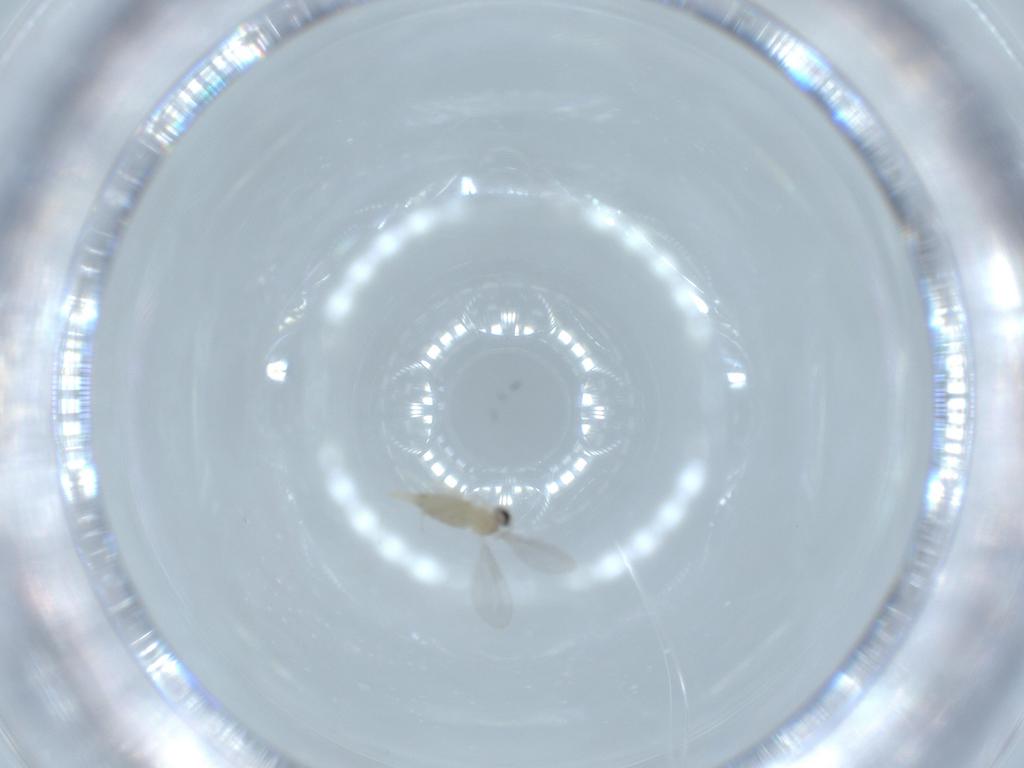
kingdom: Animalia
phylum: Arthropoda
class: Insecta
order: Diptera
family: Cecidomyiidae
